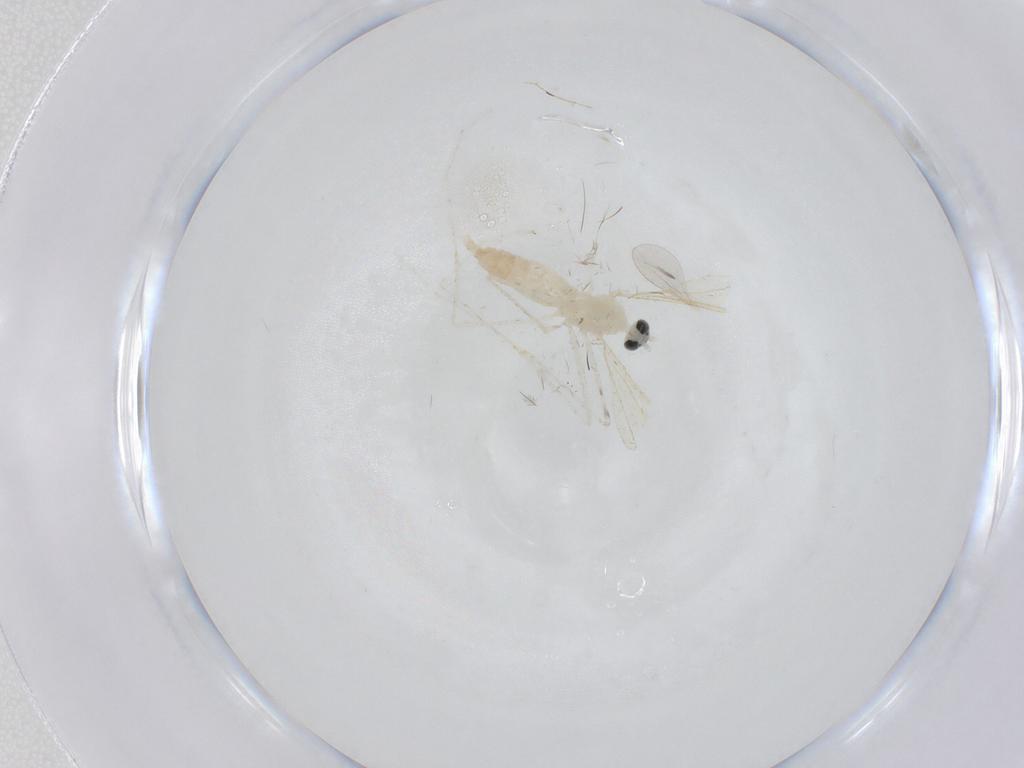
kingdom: Animalia
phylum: Arthropoda
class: Insecta
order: Diptera
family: Cecidomyiidae
